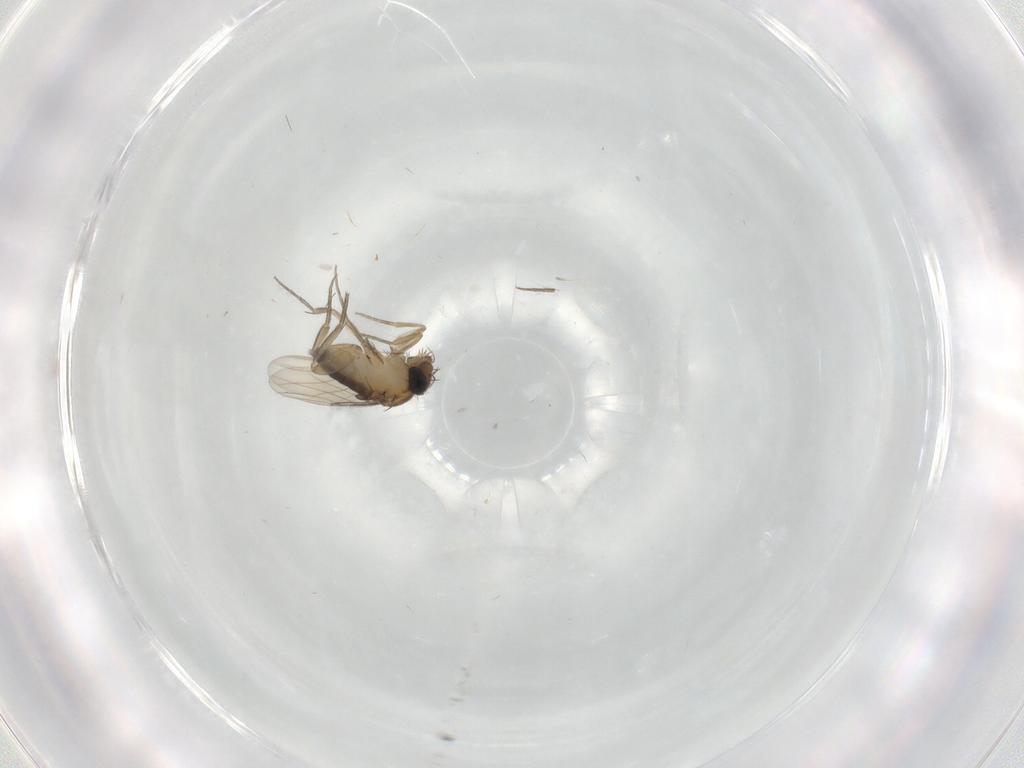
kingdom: Animalia
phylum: Arthropoda
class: Insecta
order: Diptera
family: Phoridae
